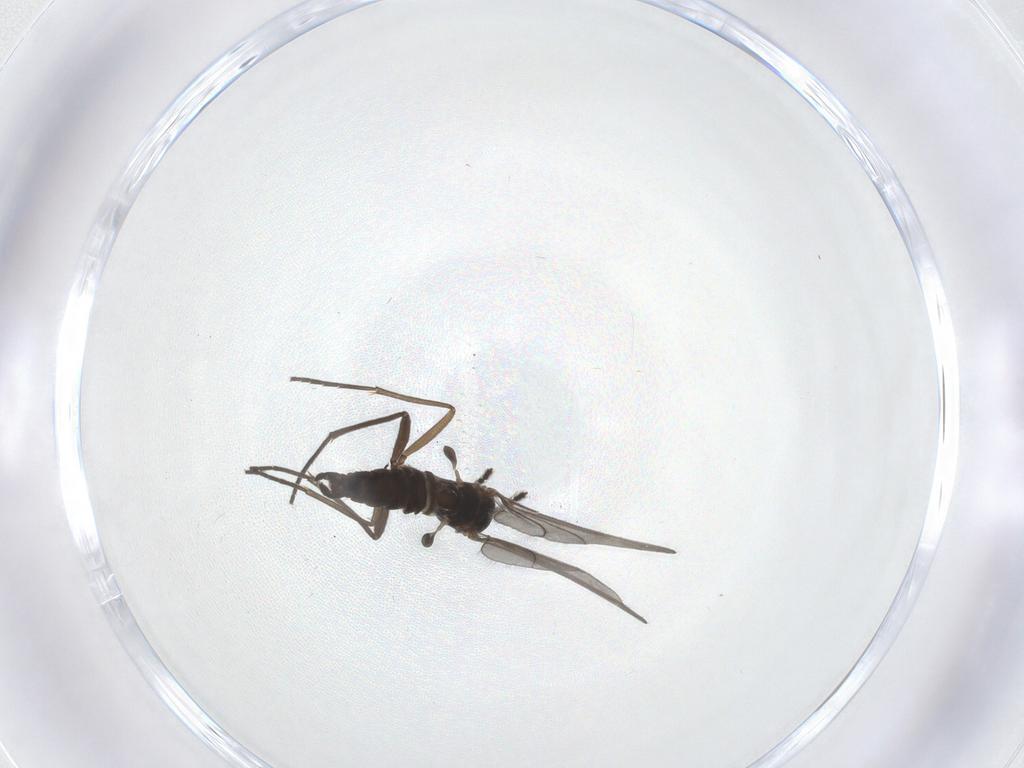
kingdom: Animalia
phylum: Arthropoda
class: Insecta
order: Diptera
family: Sciaridae
